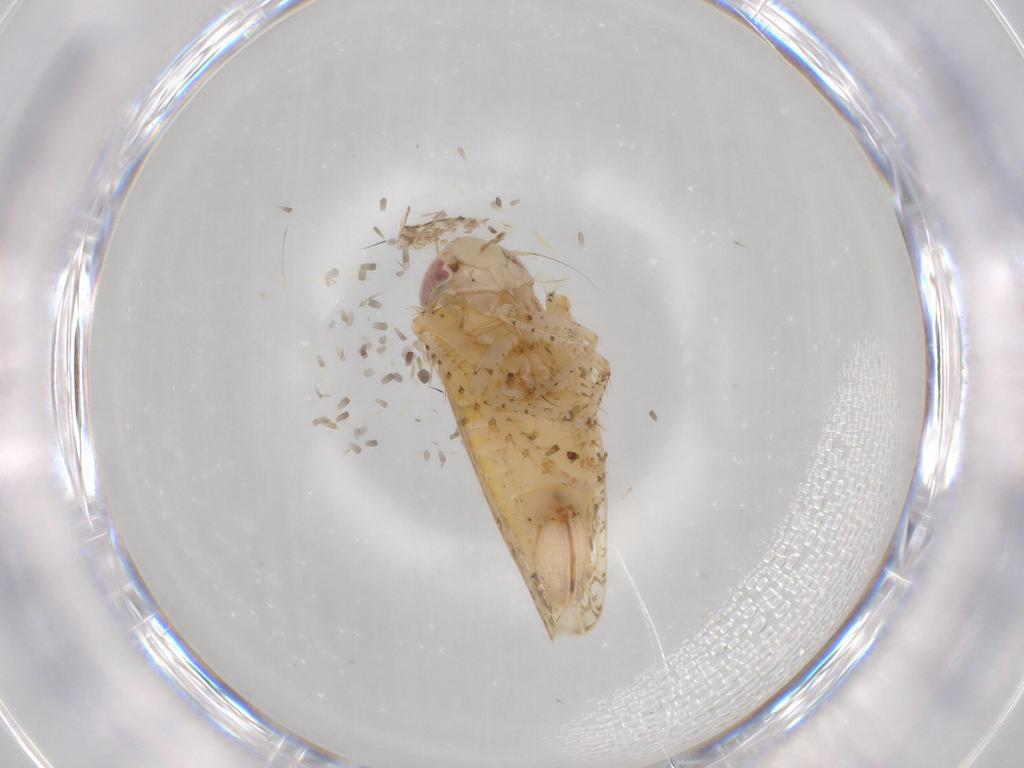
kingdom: Animalia
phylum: Arthropoda
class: Insecta
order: Hemiptera
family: Cicadellidae
